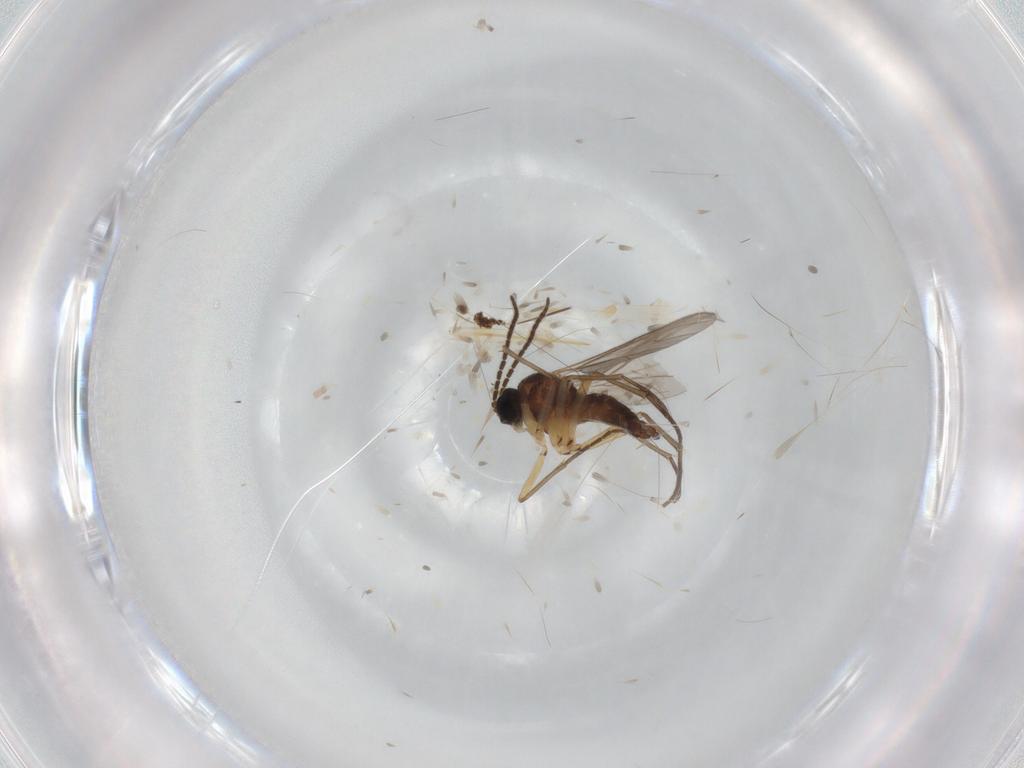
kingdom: Animalia
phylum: Arthropoda
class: Insecta
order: Diptera
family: Sciaridae
